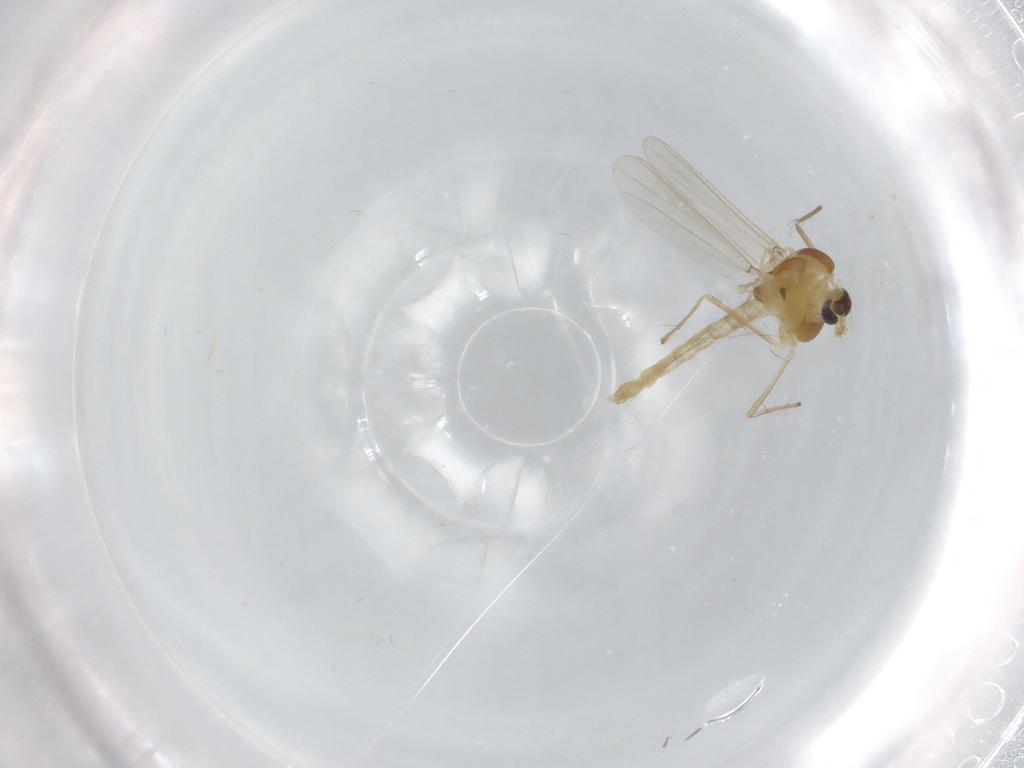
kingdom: Animalia
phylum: Arthropoda
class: Insecta
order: Diptera
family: Chironomidae
